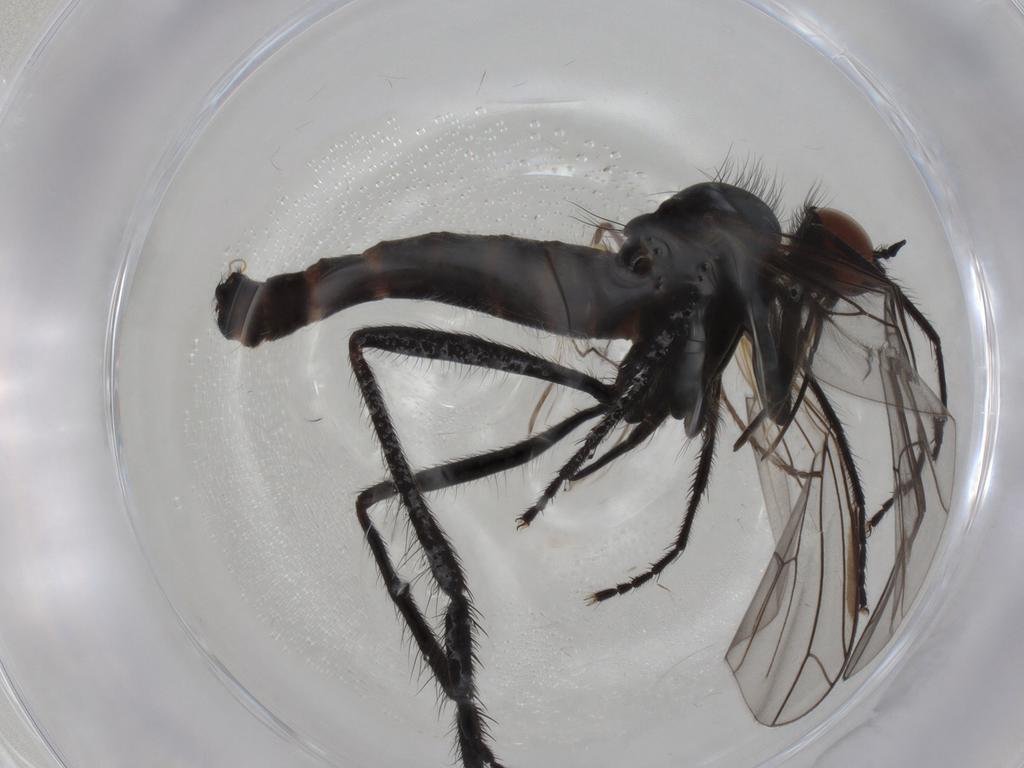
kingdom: Animalia
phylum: Arthropoda
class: Insecta
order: Diptera
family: Empididae
